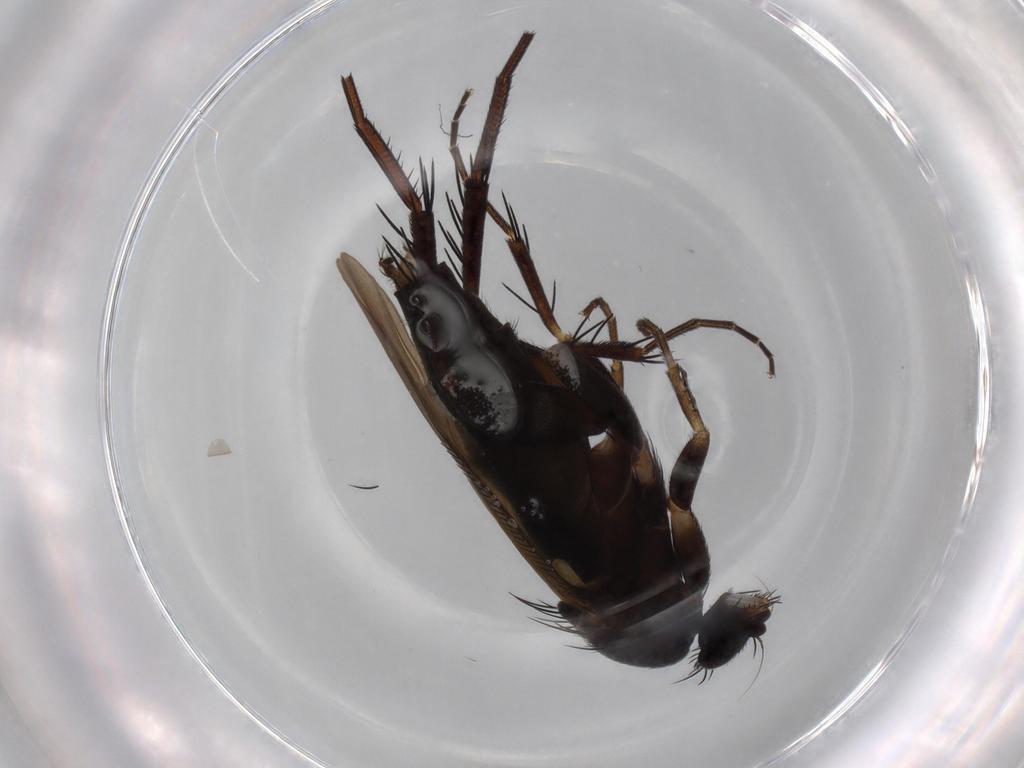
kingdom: Animalia
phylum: Arthropoda
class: Insecta
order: Diptera
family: Phoridae
